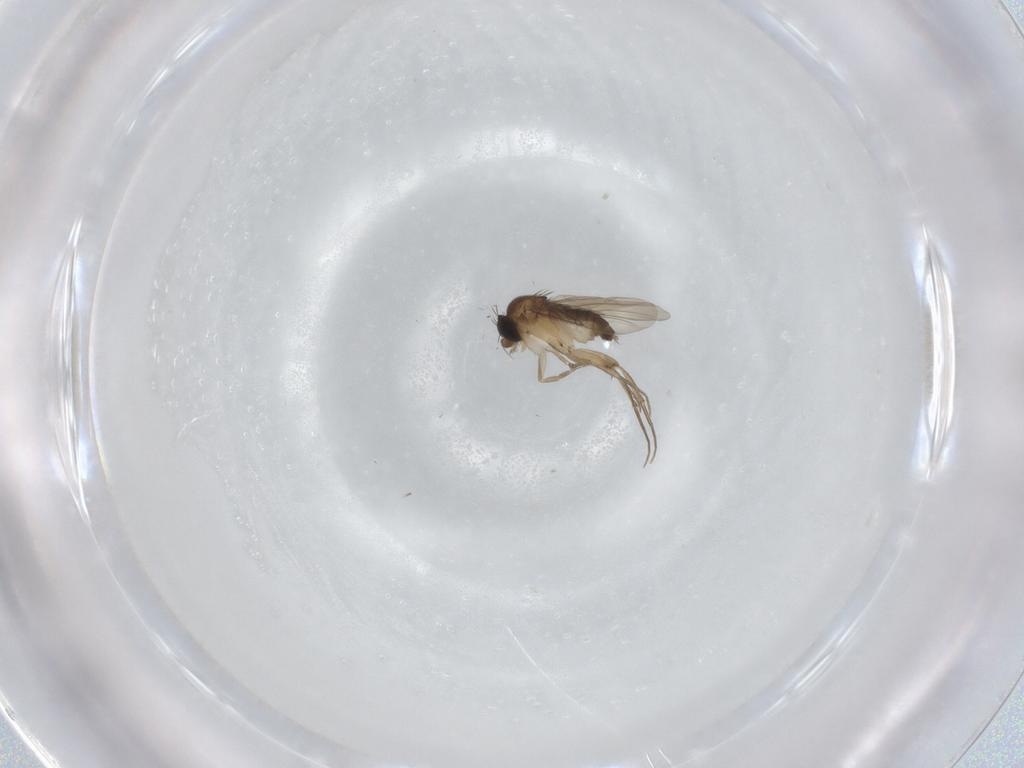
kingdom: Animalia
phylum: Arthropoda
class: Insecta
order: Diptera
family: Phoridae
